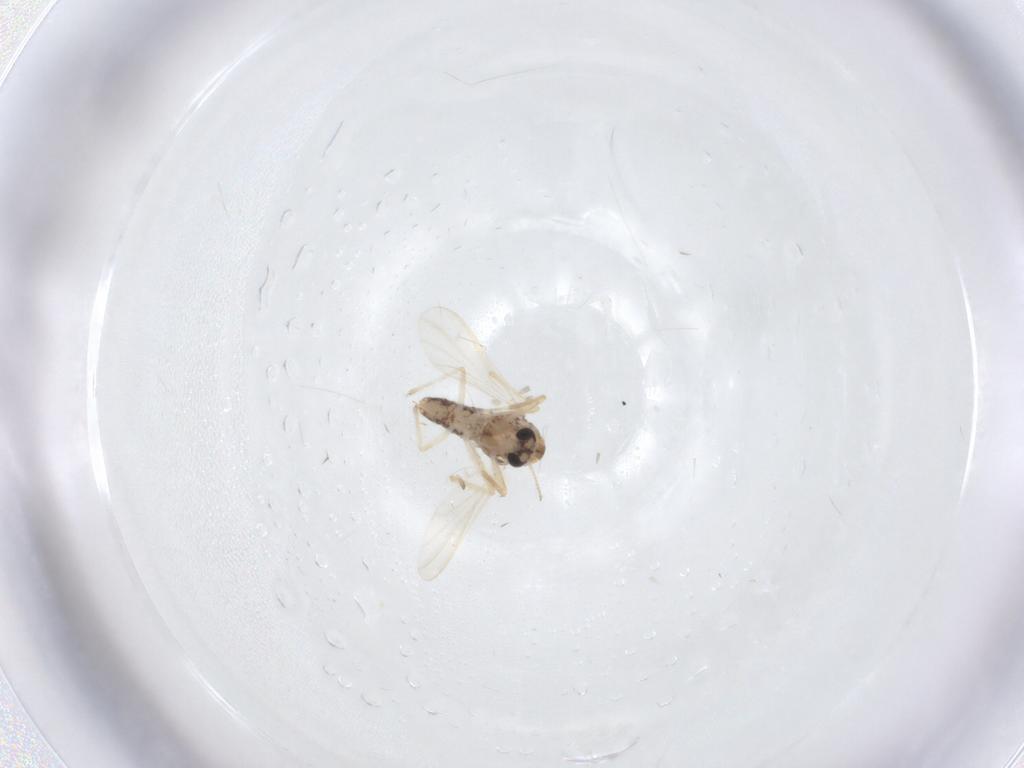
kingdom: Animalia
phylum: Arthropoda
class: Insecta
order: Diptera
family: Chironomidae
